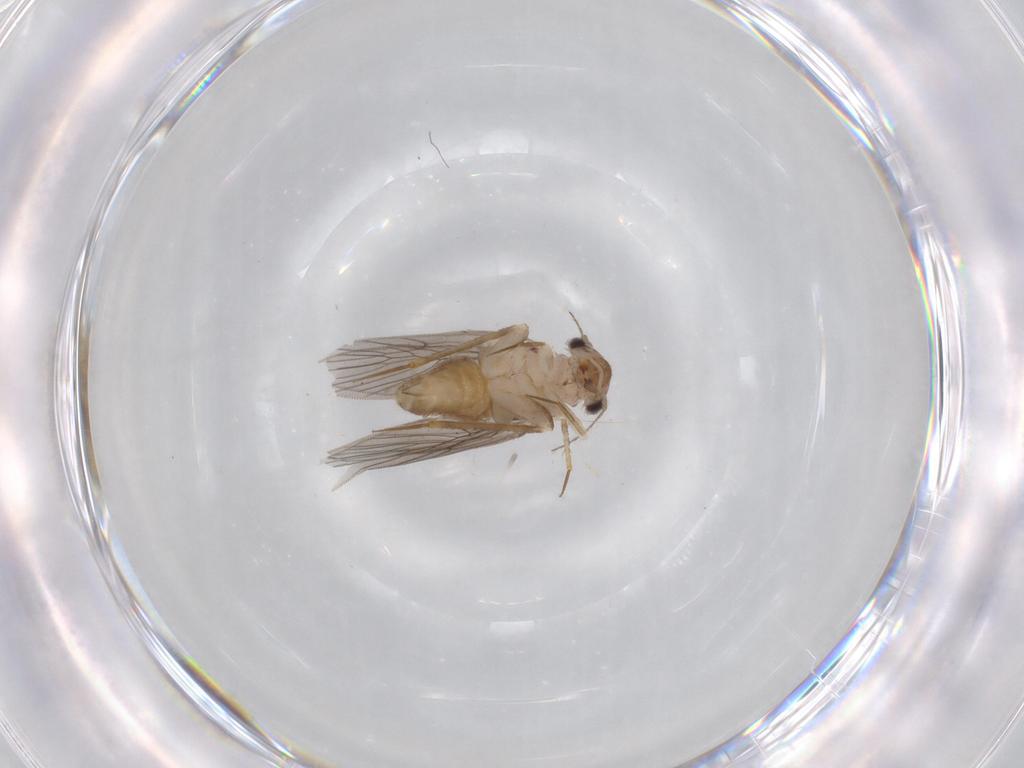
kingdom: Animalia
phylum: Arthropoda
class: Insecta
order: Psocodea
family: Lepidopsocidae
